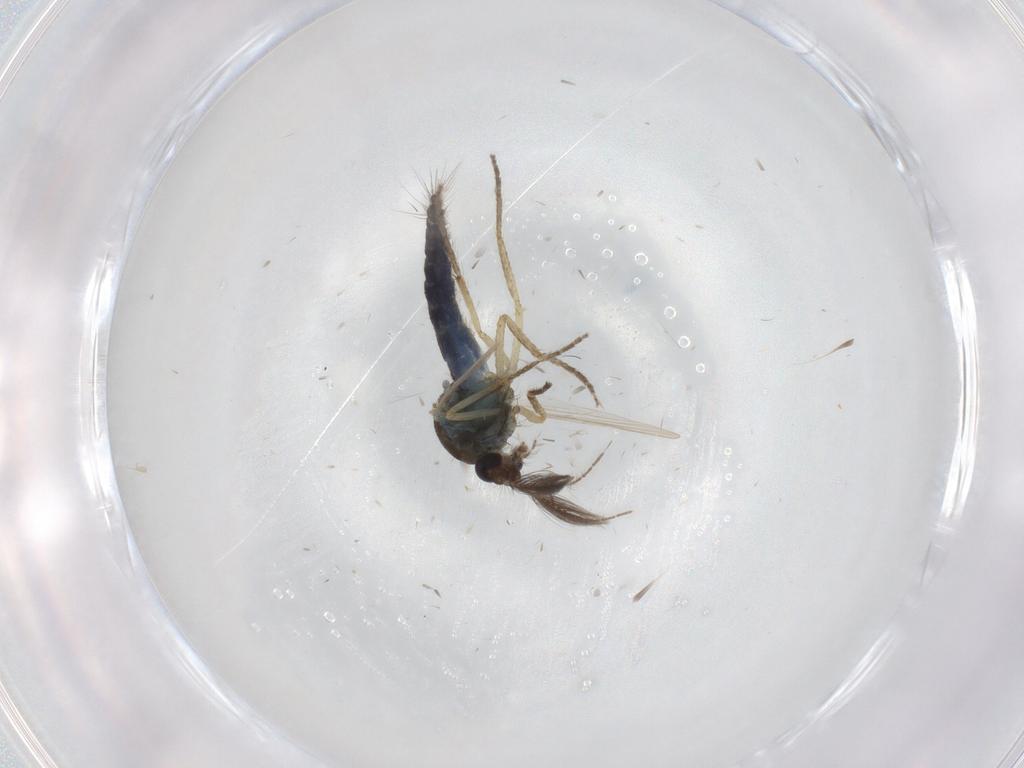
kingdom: Animalia
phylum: Arthropoda
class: Insecta
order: Diptera
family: Ceratopogonidae
